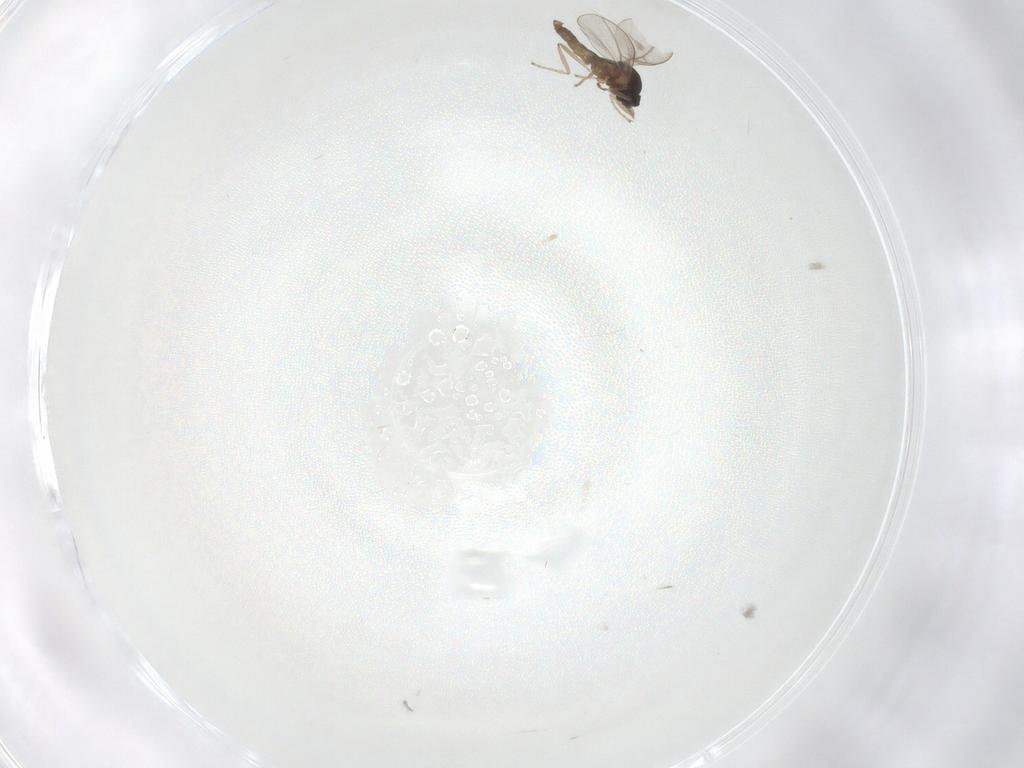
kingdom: Animalia
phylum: Arthropoda
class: Insecta
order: Diptera
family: Cecidomyiidae
